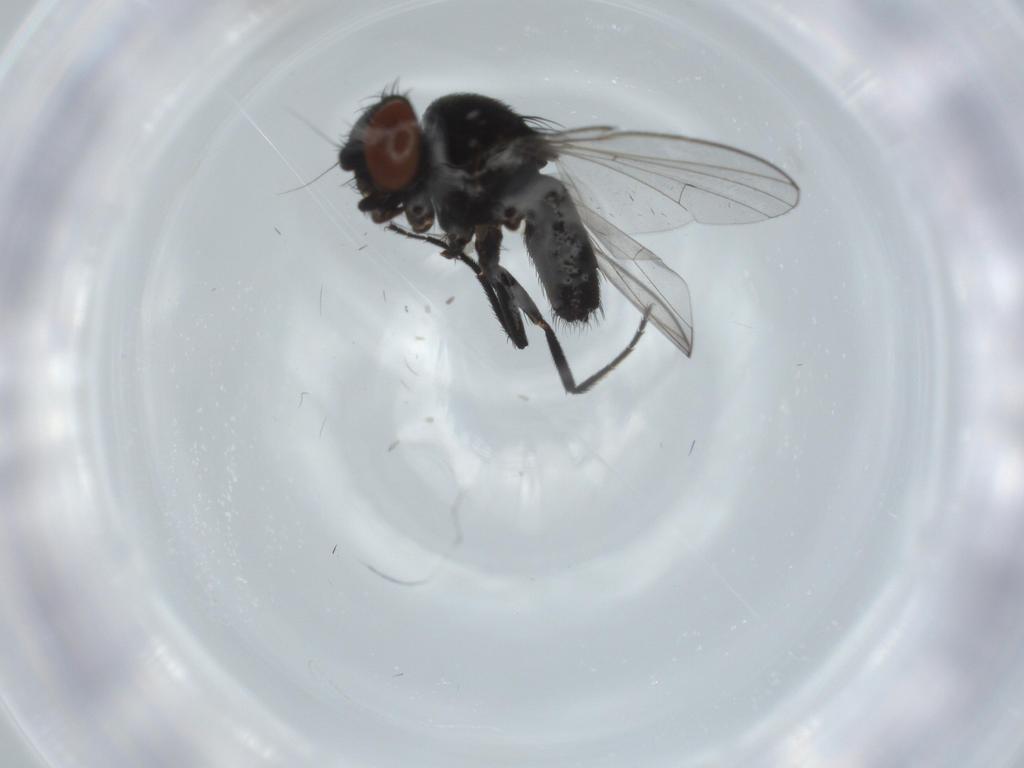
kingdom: Animalia
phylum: Arthropoda
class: Insecta
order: Diptera
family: Milichiidae
